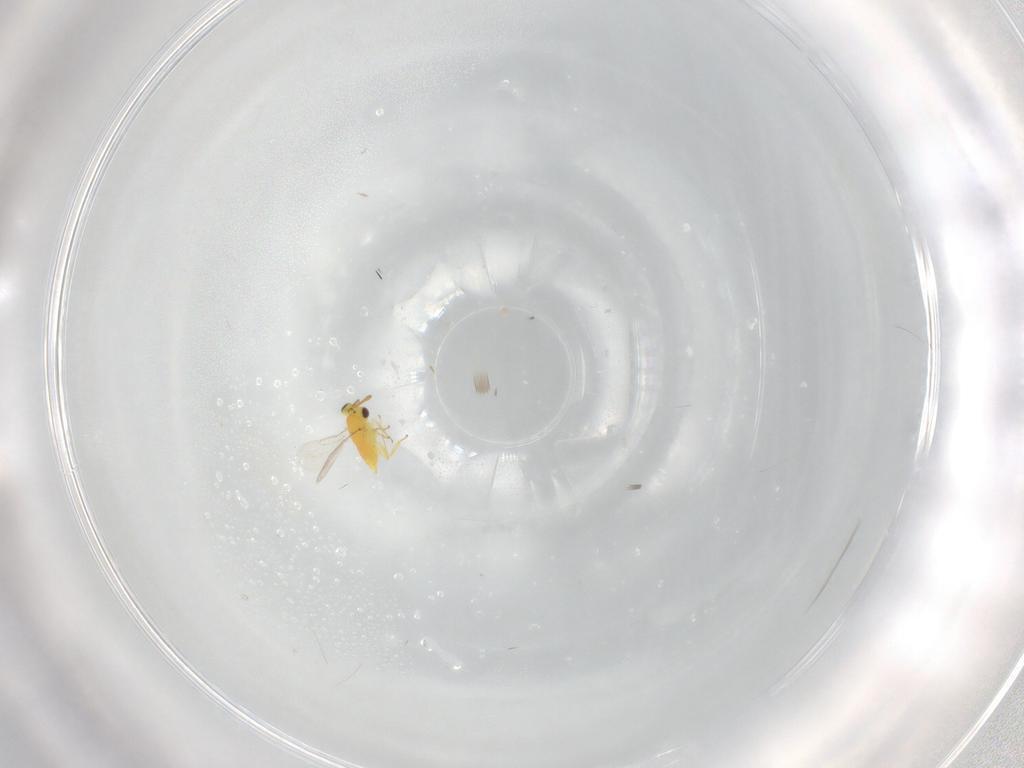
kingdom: Animalia
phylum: Arthropoda
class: Insecta
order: Hymenoptera
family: Aphelinidae
